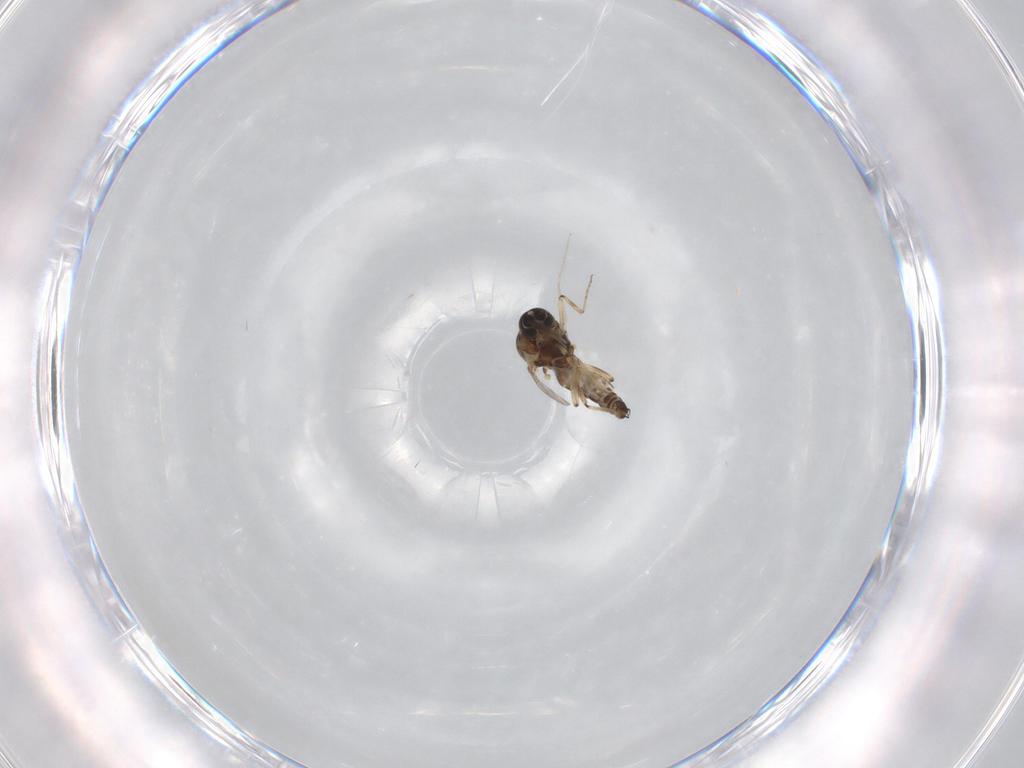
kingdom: Animalia
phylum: Arthropoda
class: Insecta
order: Diptera
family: Ceratopogonidae
